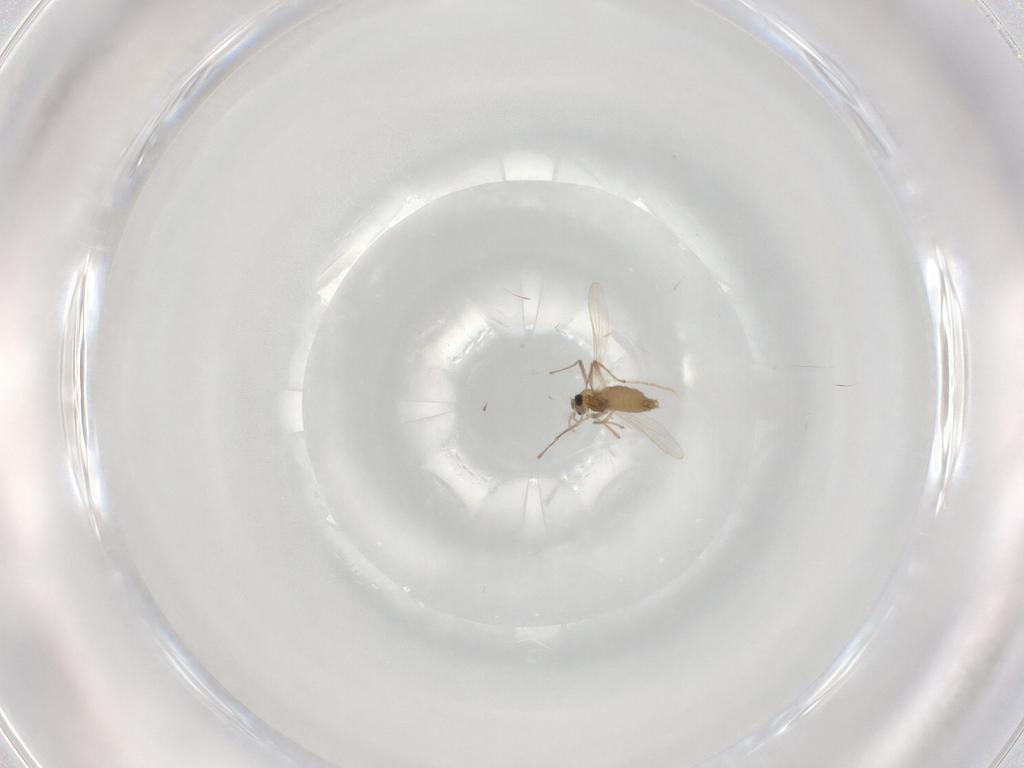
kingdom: Animalia
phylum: Arthropoda
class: Insecta
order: Diptera
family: Chironomidae
